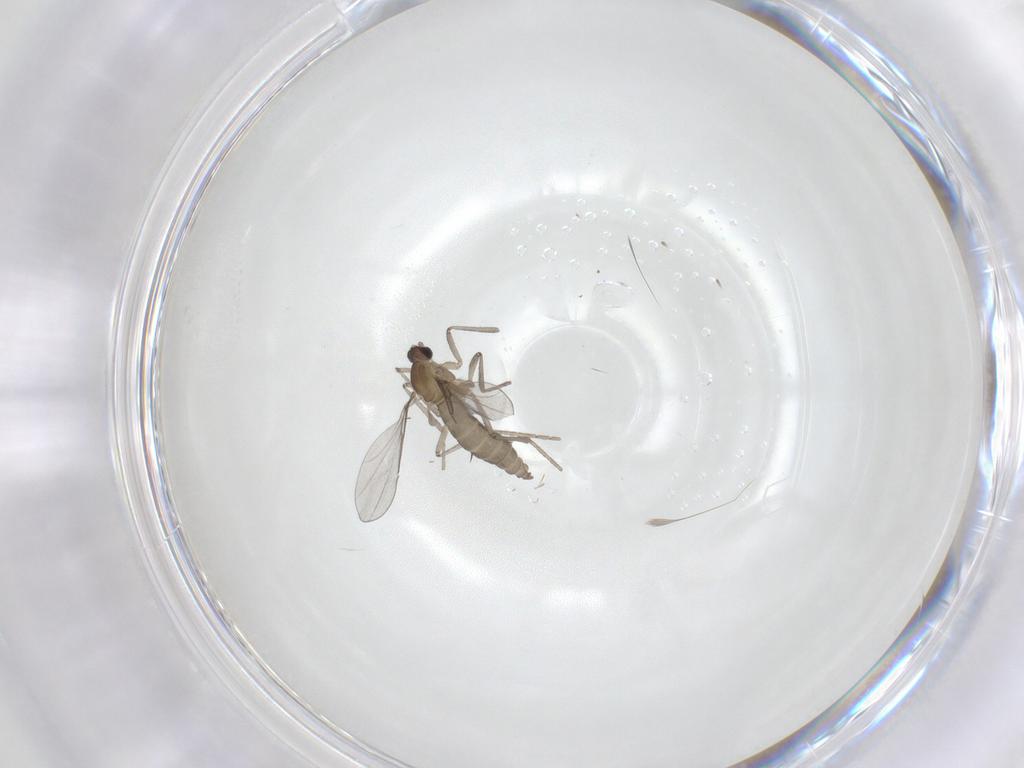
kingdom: Animalia
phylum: Arthropoda
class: Insecta
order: Diptera
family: Cecidomyiidae
